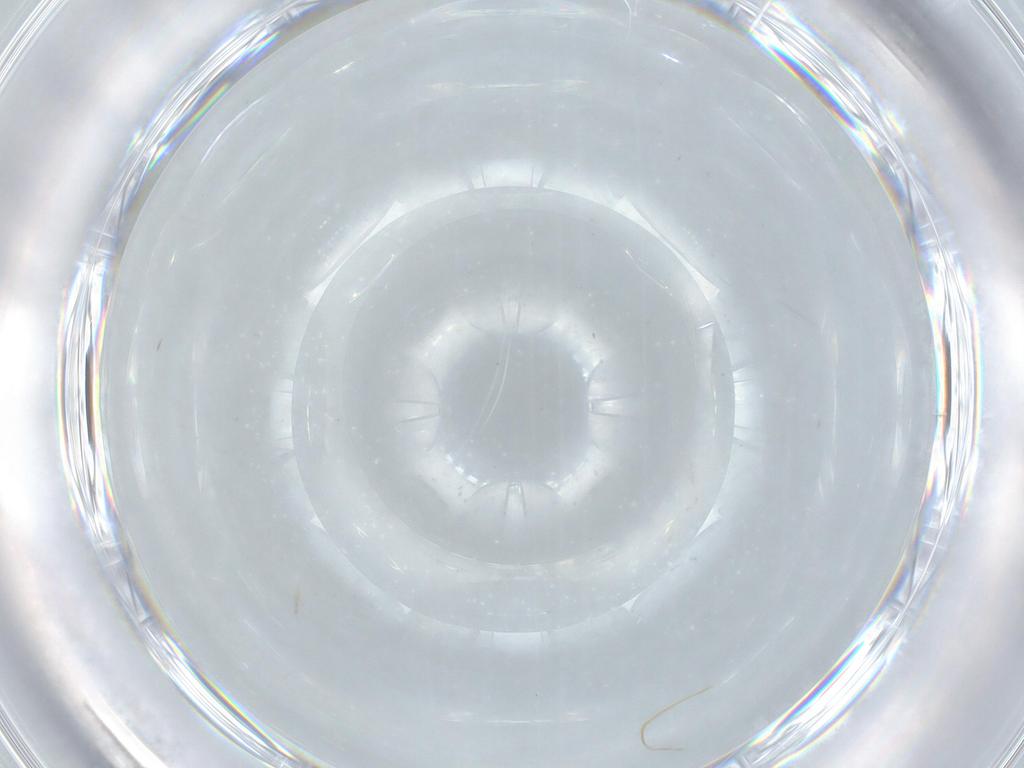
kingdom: Animalia
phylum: Arthropoda
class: Insecta
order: Diptera
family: Chironomidae
